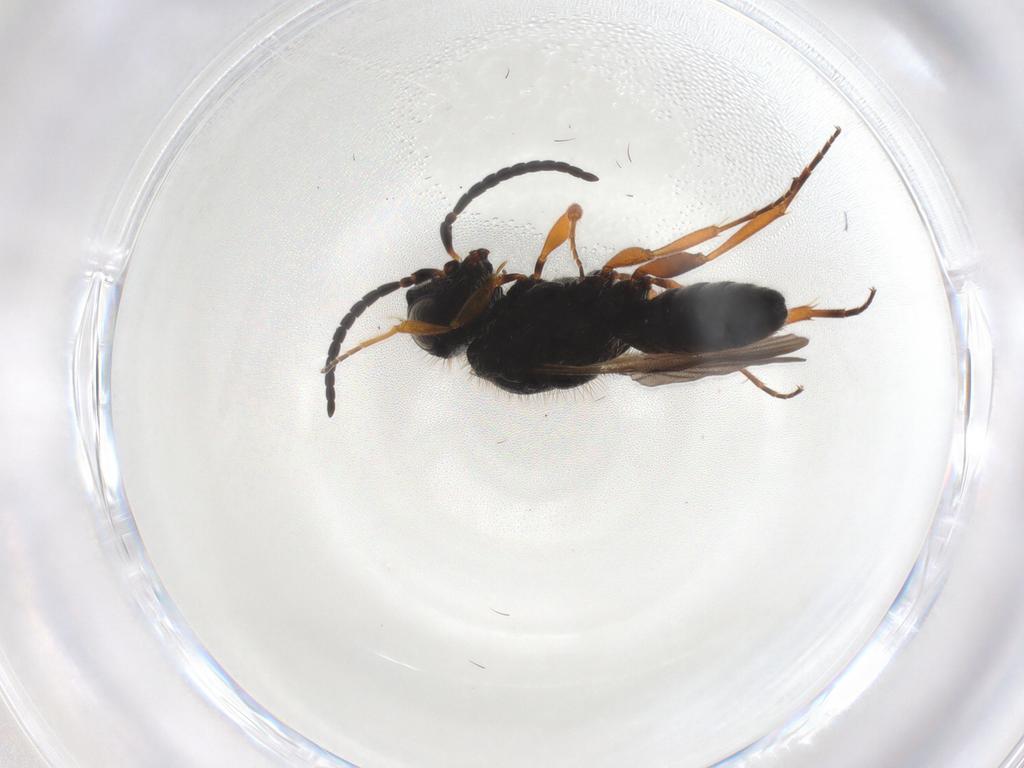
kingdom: Animalia
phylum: Arthropoda
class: Insecta
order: Hymenoptera
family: Scelionidae
